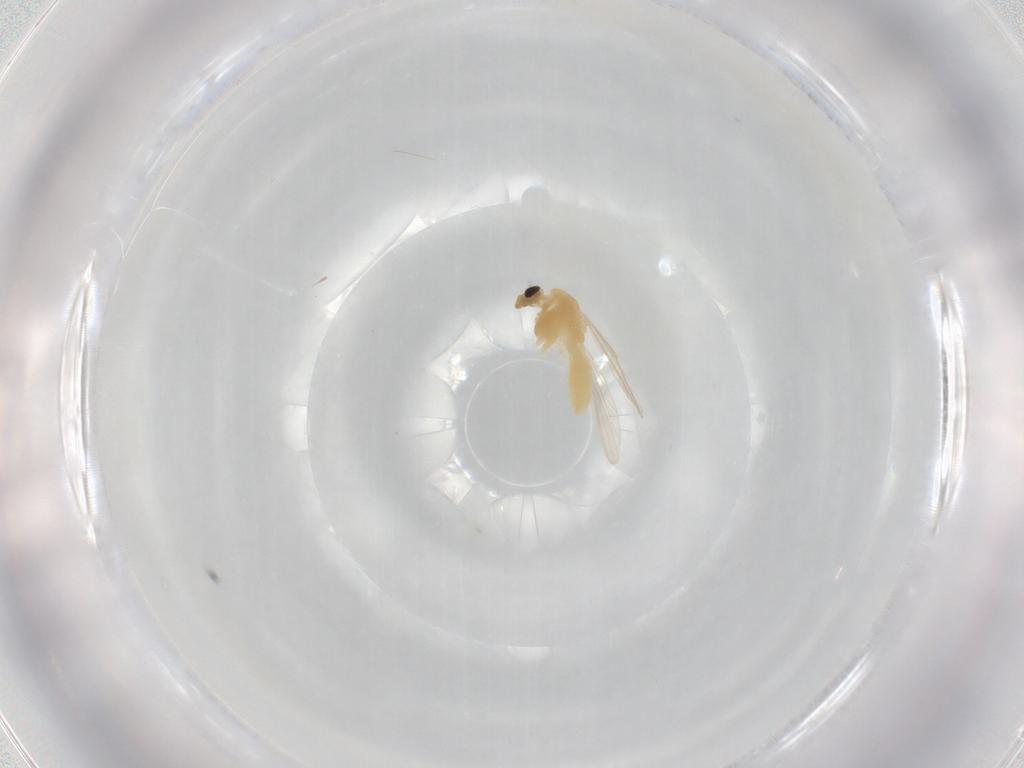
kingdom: Animalia
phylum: Arthropoda
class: Insecta
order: Diptera
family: Chironomidae
